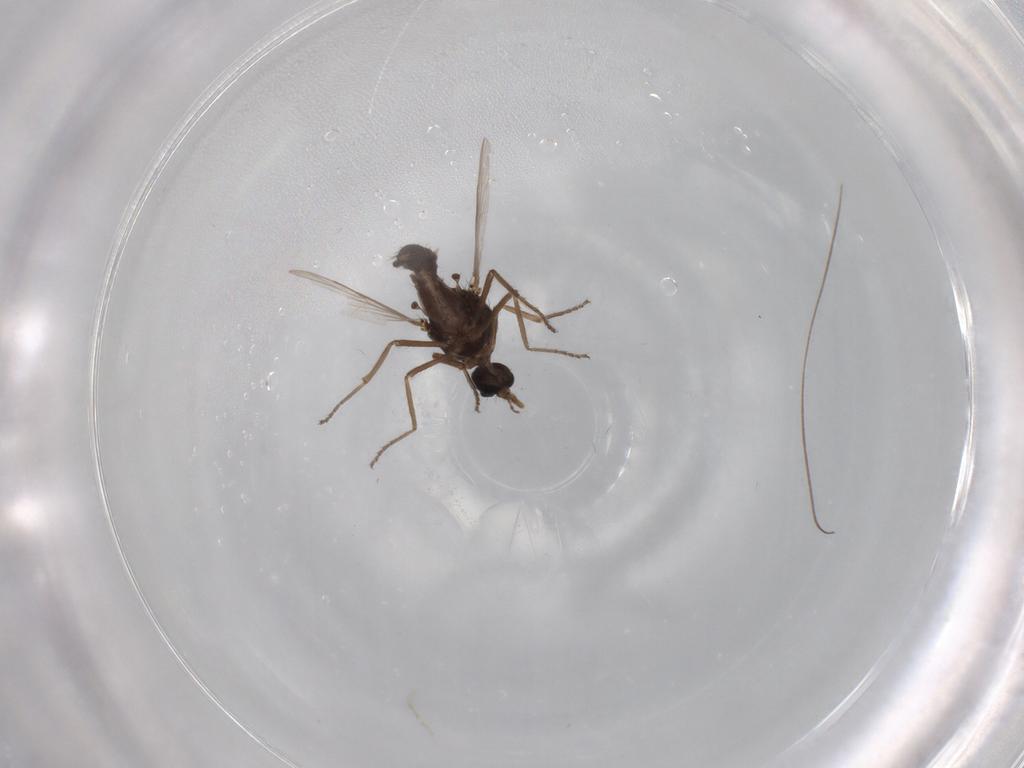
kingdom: Animalia
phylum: Arthropoda
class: Insecta
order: Diptera
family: Ceratopogonidae
